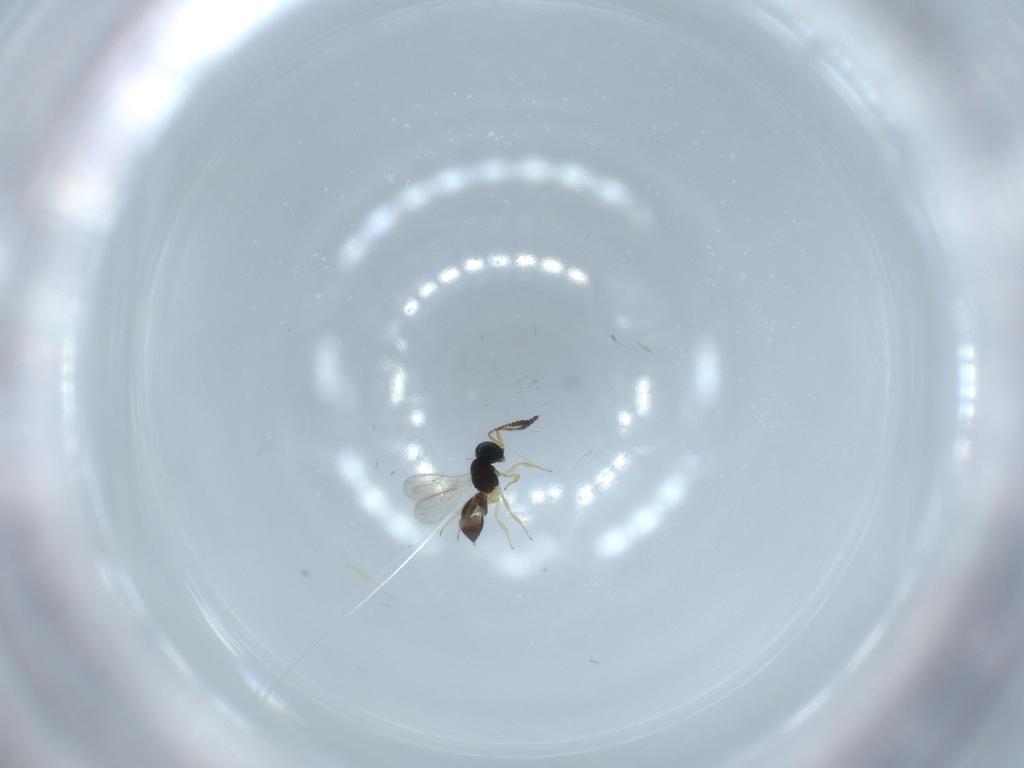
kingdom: Animalia
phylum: Arthropoda
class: Insecta
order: Hymenoptera
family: Scelionidae
